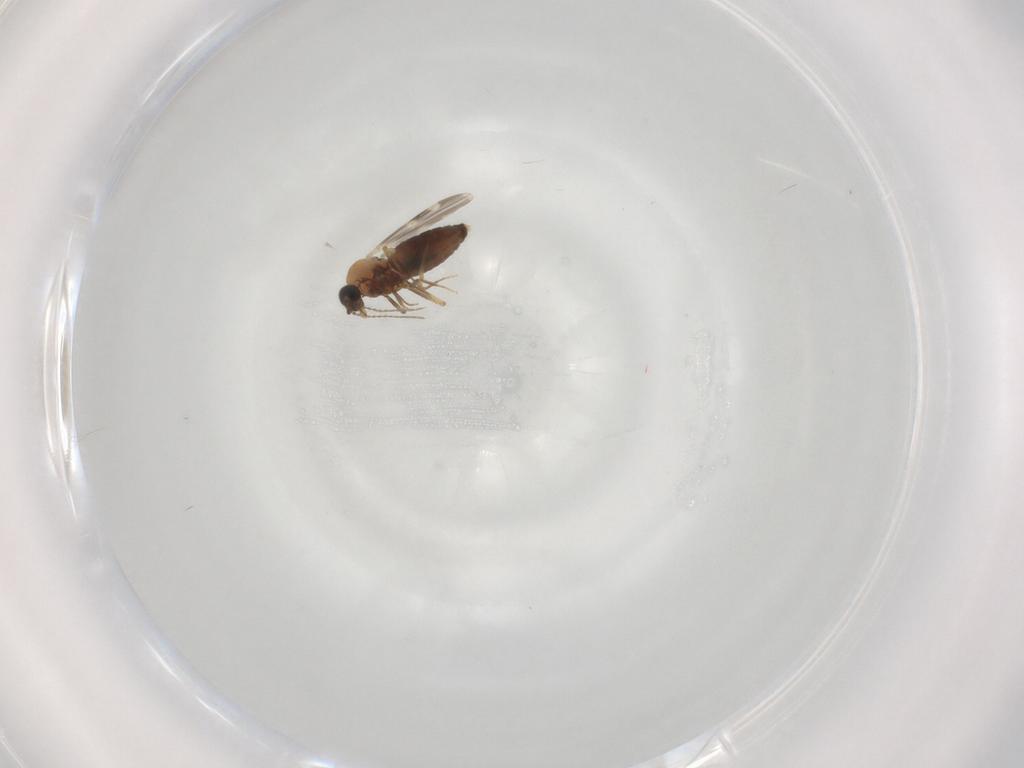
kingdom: Animalia
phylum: Arthropoda
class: Insecta
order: Diptera
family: Ceratopogonidae
